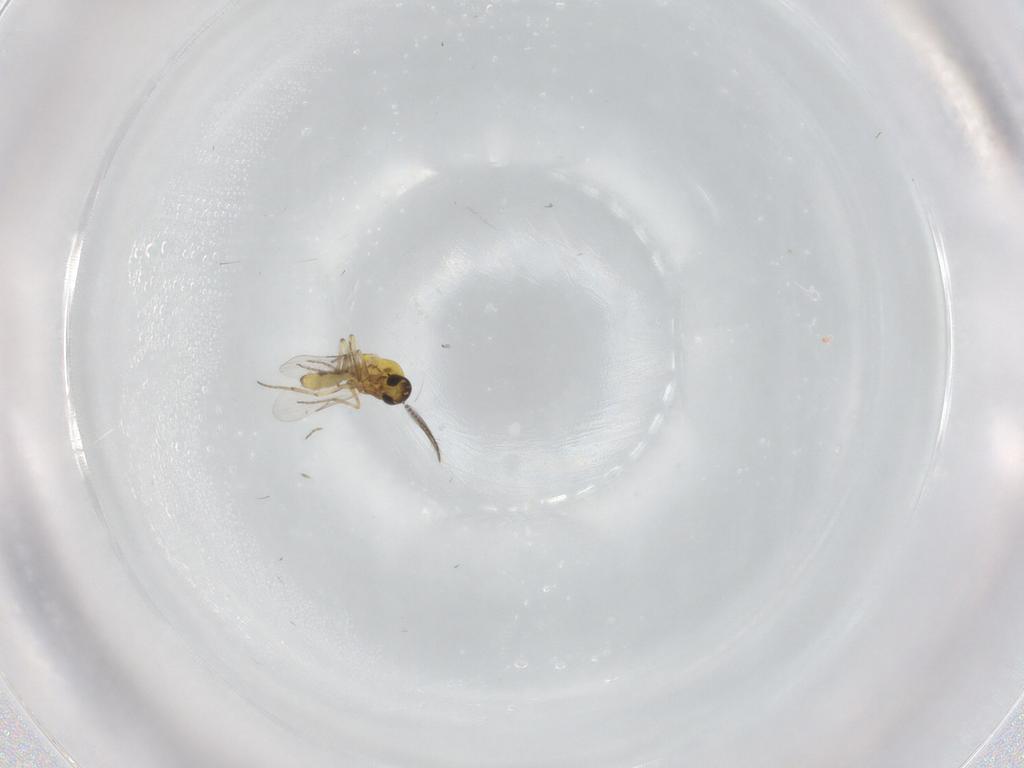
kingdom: Animalia
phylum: Arthropoda
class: Insecta
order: Diptera
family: Cecidomyiidae
